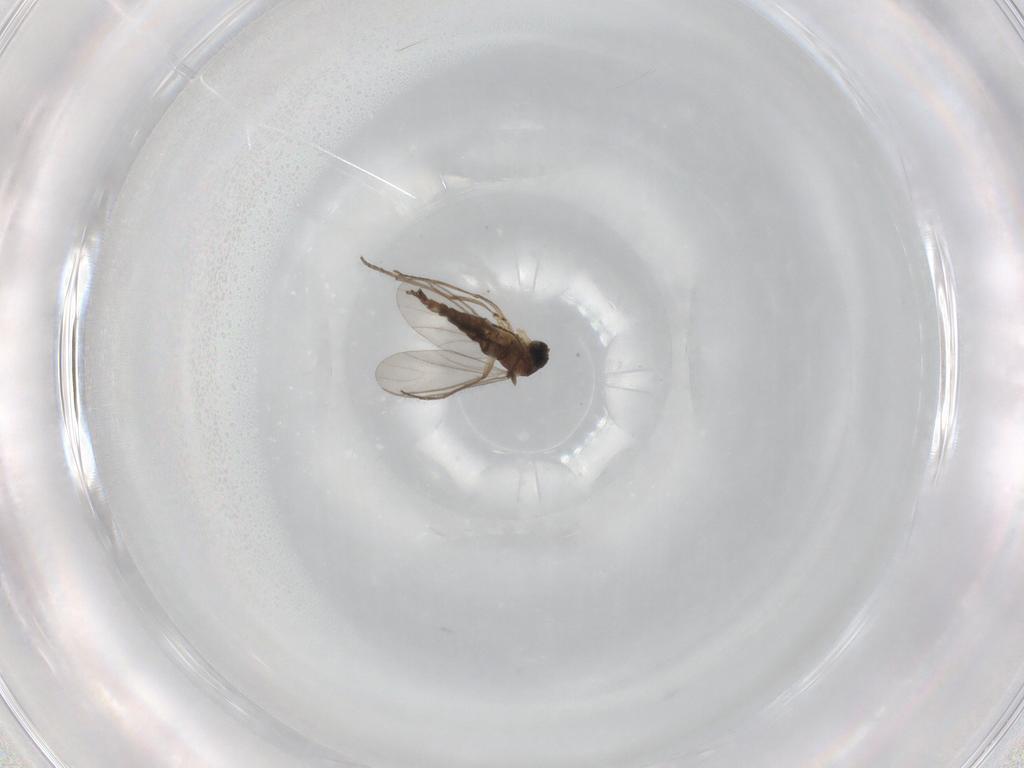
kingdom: Animalia
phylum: Arthropoda
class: Insecta
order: Diptera
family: Sciaridae
